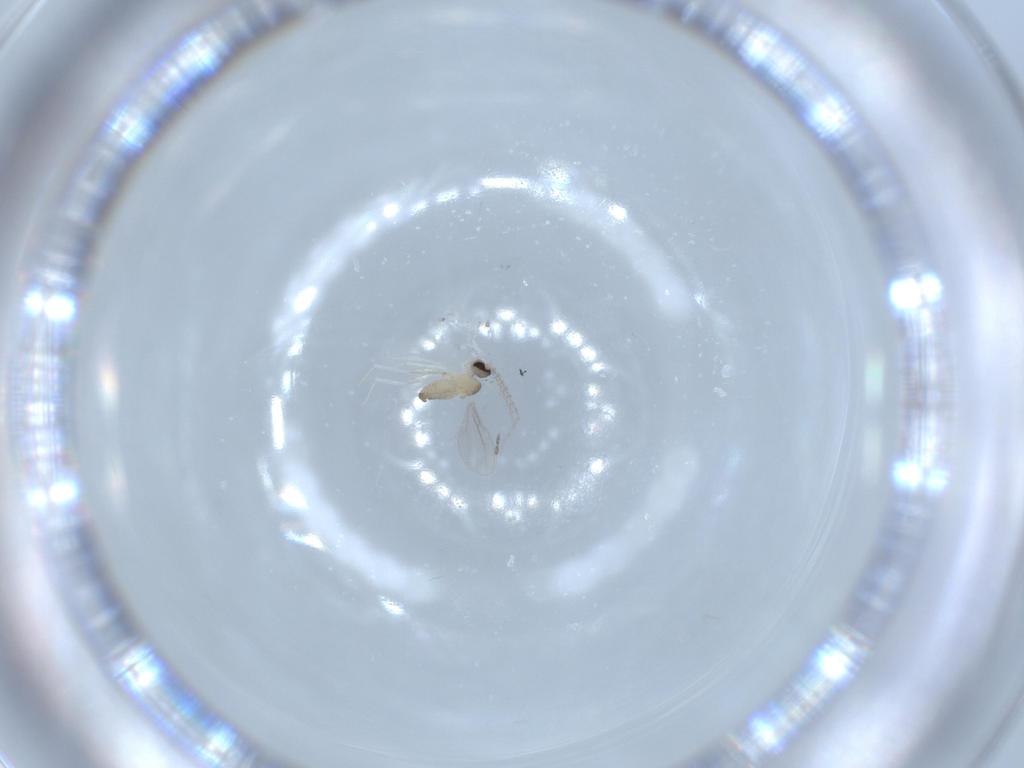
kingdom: Animalia
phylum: Arthropoda
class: Insecta
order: Diptera
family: Cecidomyiidae
